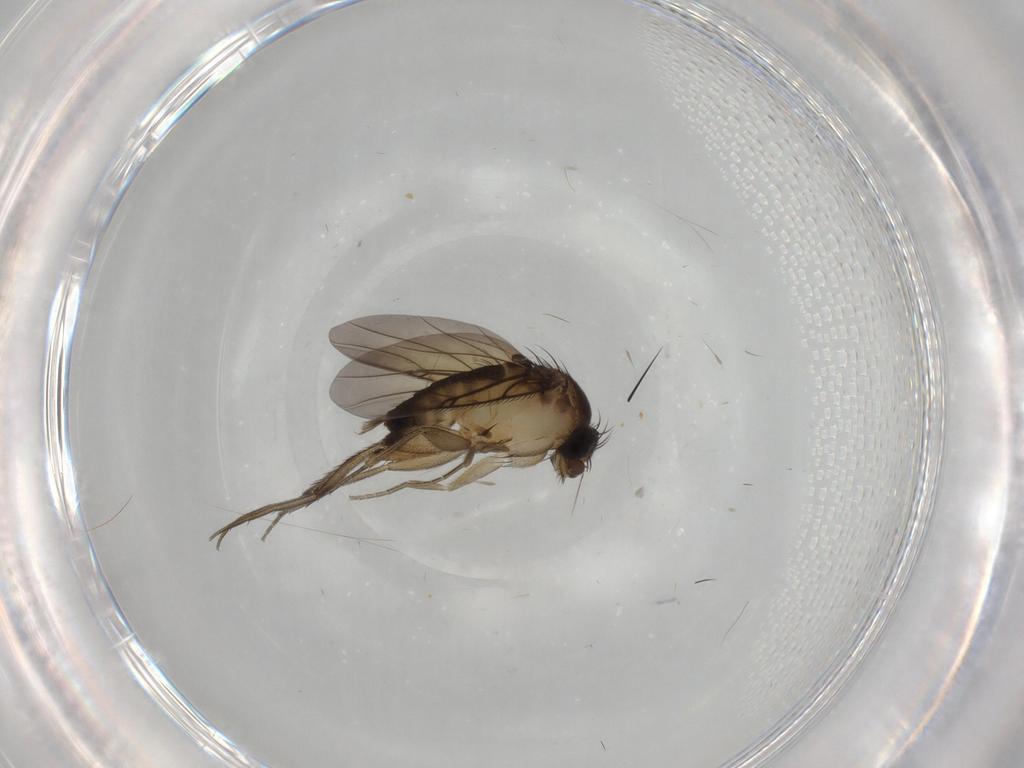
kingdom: Animalia
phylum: Arthropoda
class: Insecta
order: Diptera
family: Phoridae
